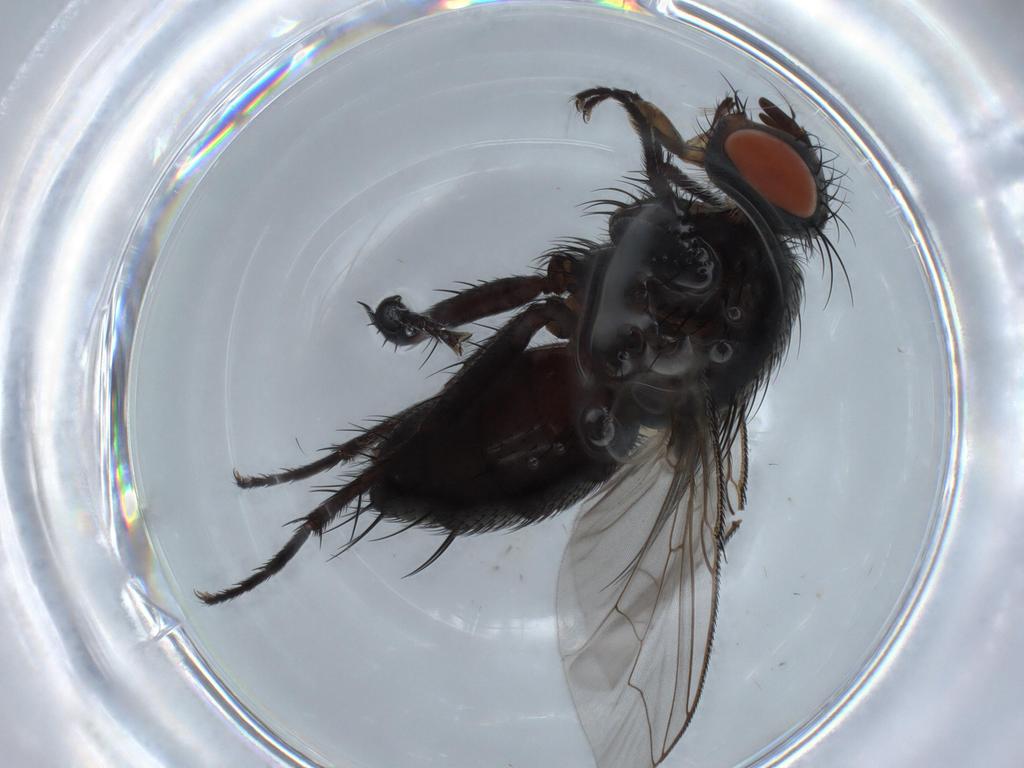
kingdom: Animalia
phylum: Arthropoda
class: Insecta
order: Diptera
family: Sarcophagidae
